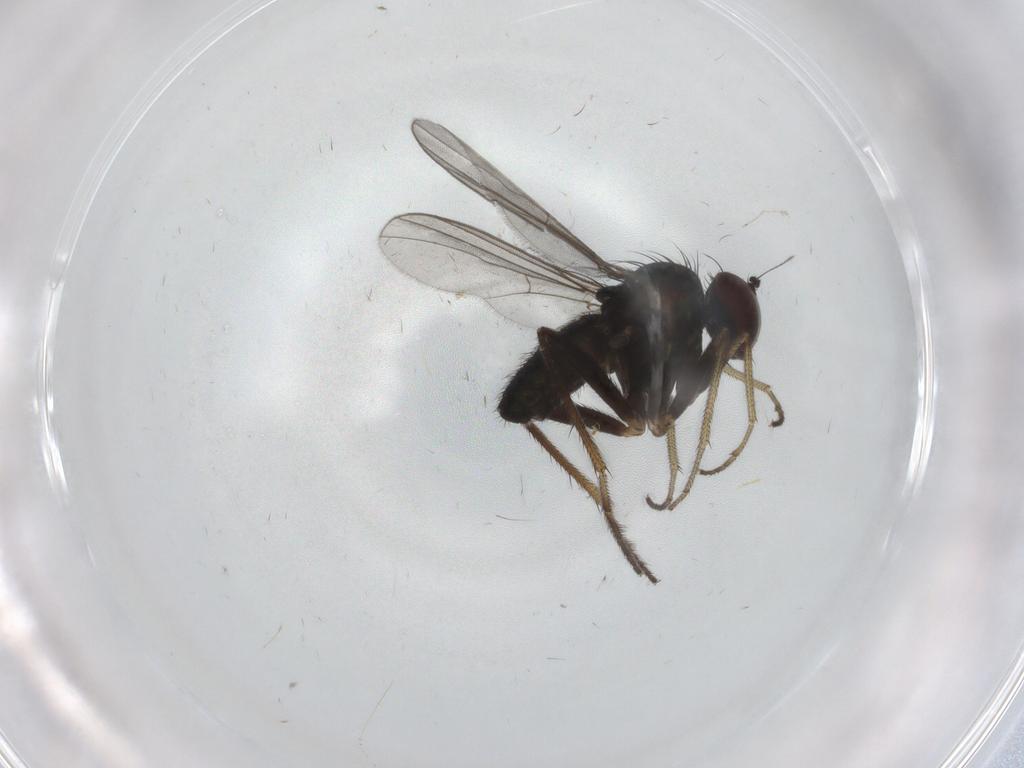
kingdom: Animalia
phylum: Arthropoda
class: Insecta
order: Diptera
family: Dolichopodidae
